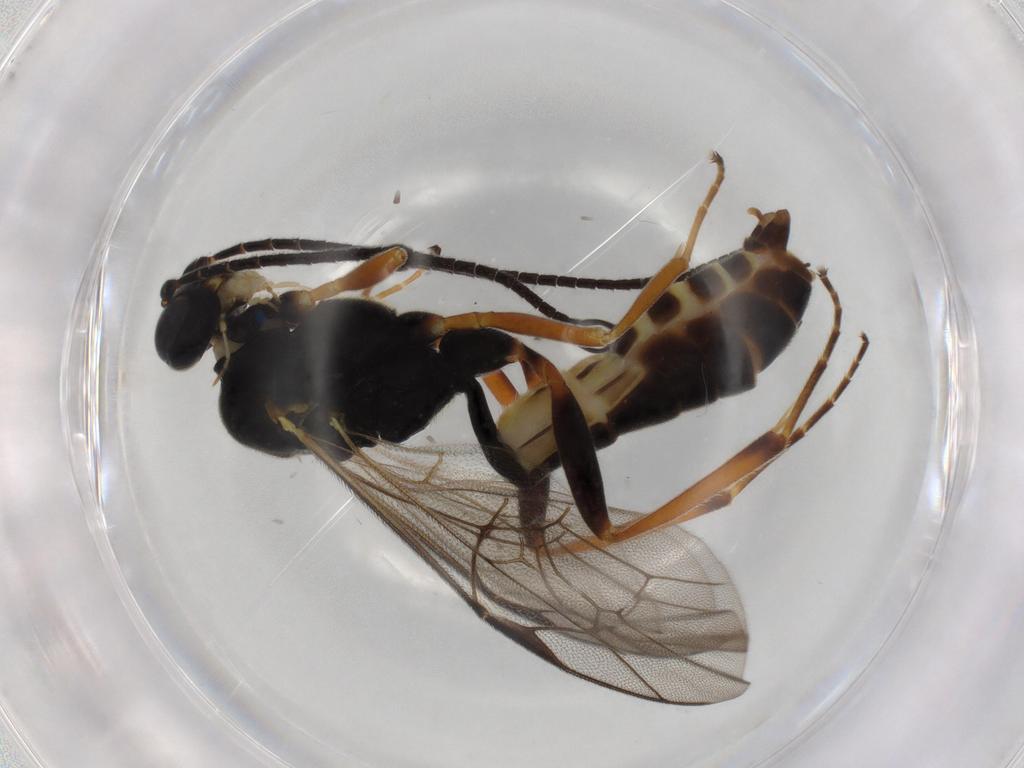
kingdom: Animalia
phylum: Arthropoda
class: Insecta
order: Hymenoptera
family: Ichneumonidae
